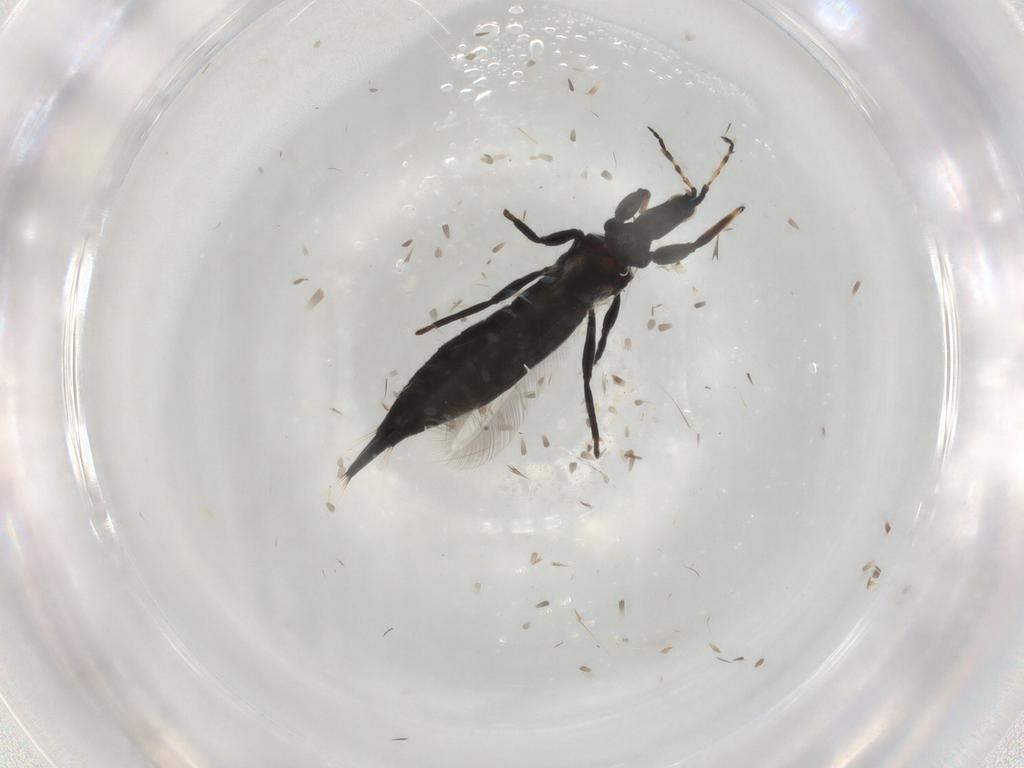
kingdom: Animalia
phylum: Arthropoda
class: Insecta
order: Thysanoptera
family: Phlaeothripidae
